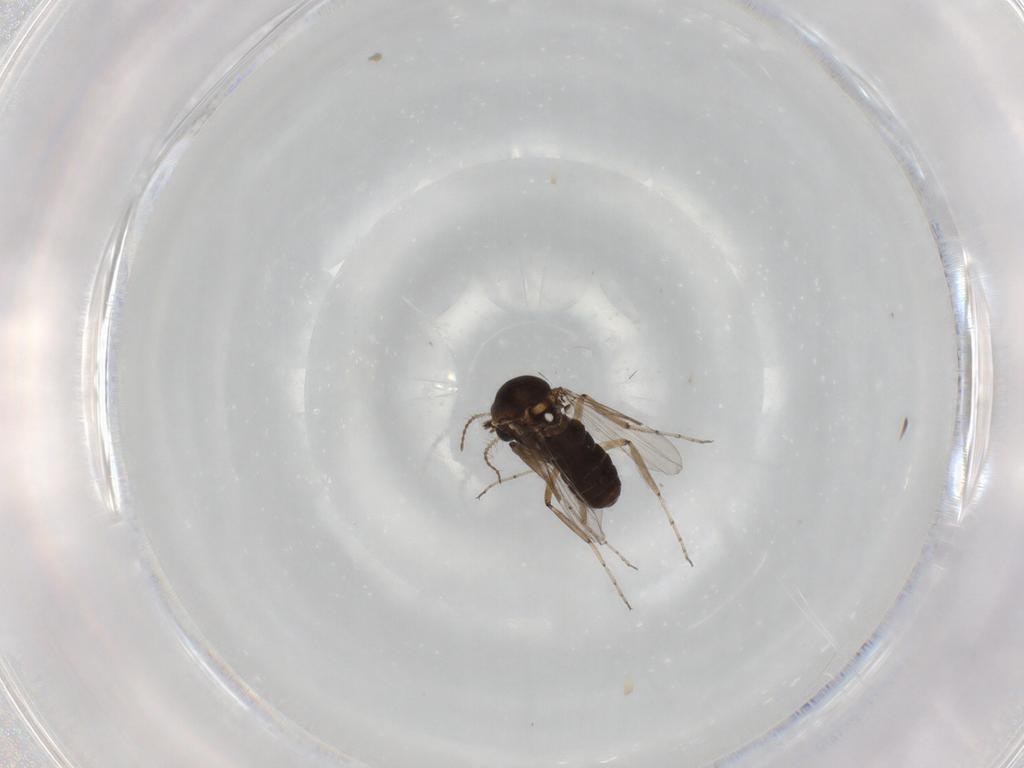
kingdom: Animalia
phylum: Arthropoda
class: Insecta
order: Diptera
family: Ceratopogonidae
